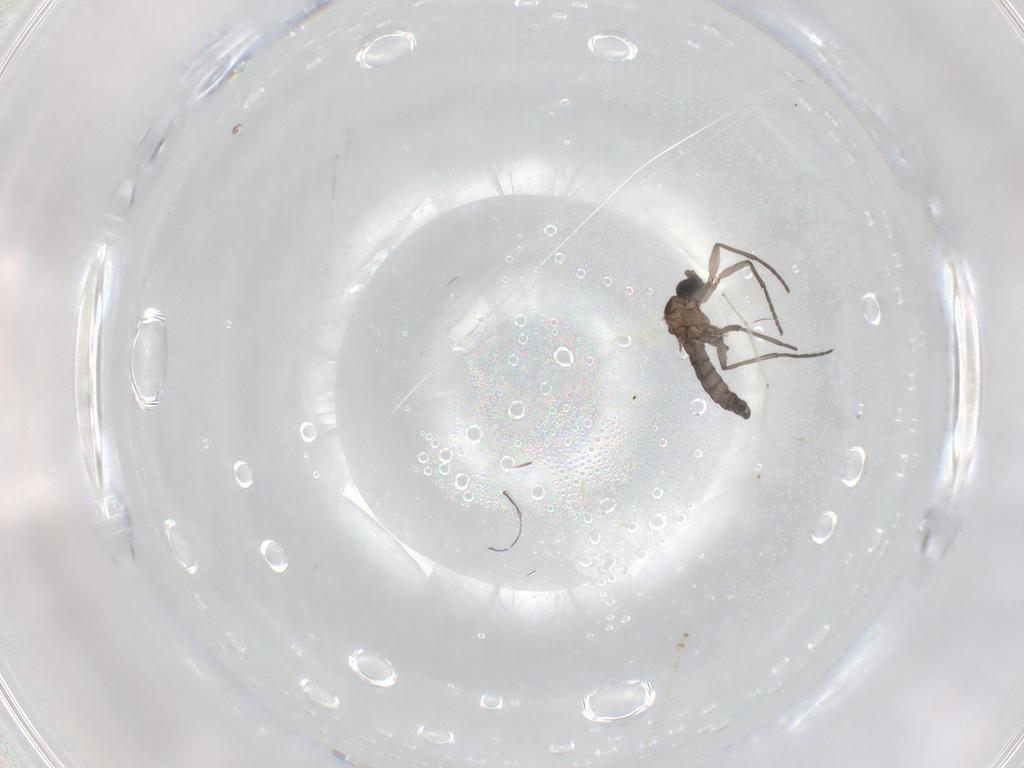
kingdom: Animalia
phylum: Arthropoda
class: Insecta
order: Diptera
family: Sciaridae
